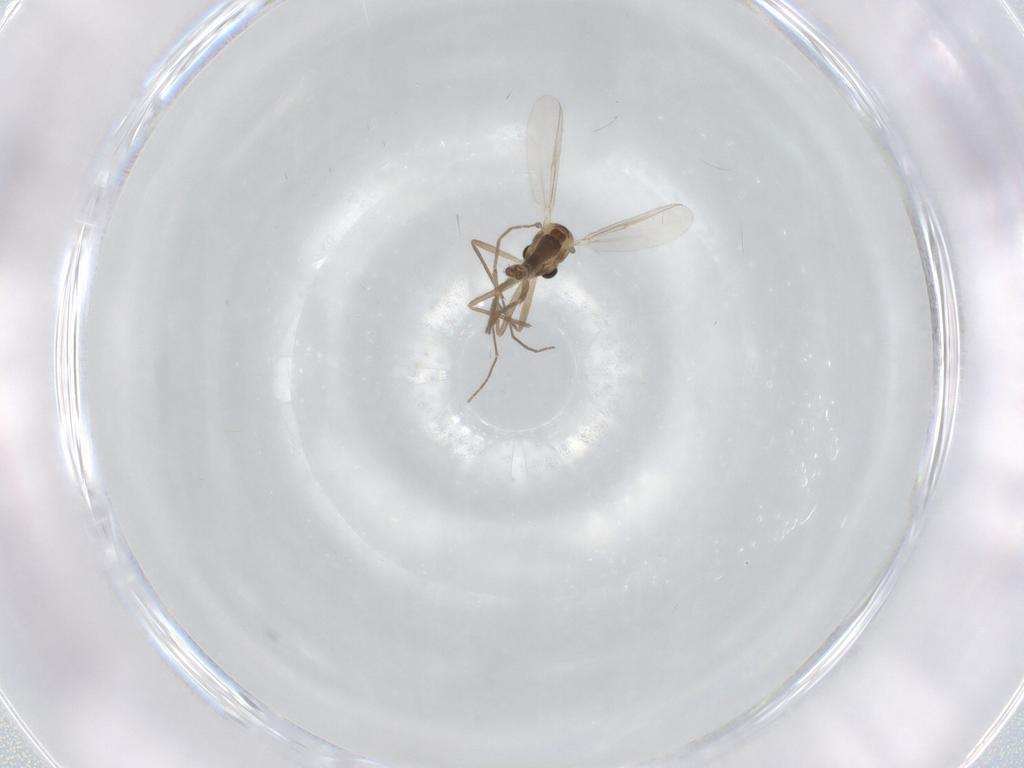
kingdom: Animalia
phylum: Arthropoda
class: Insecta
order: Diptera
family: Chironomidae
